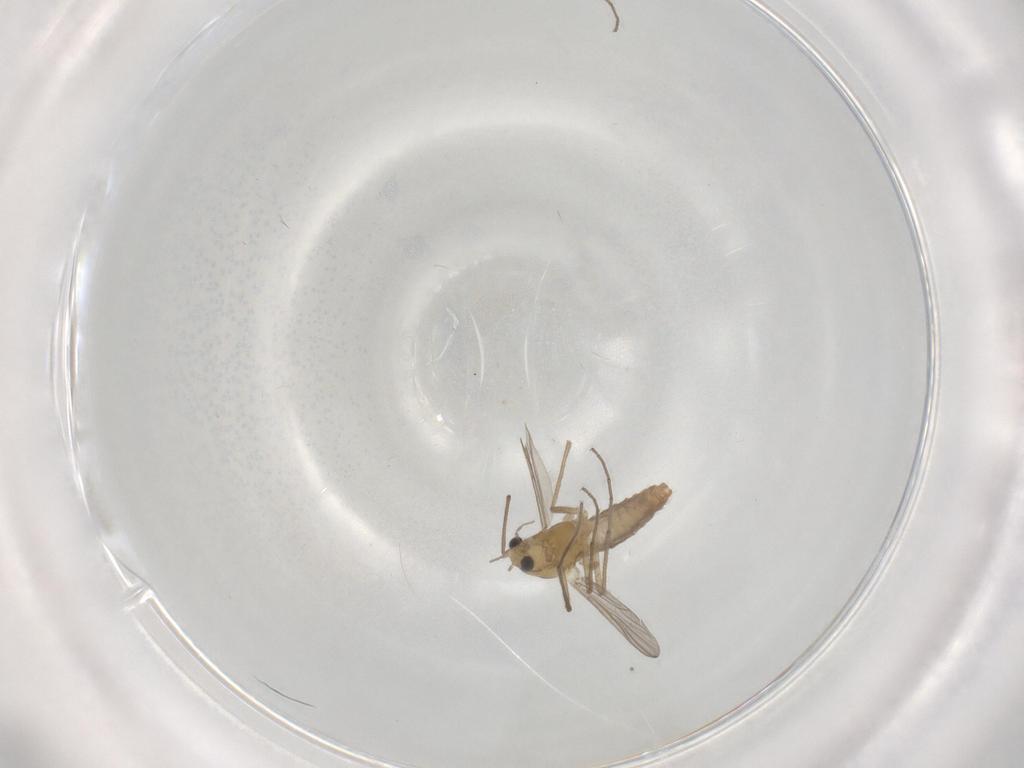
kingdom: Animalia
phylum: Arthropoda
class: Insecta
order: Diptera
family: Chironomidae
